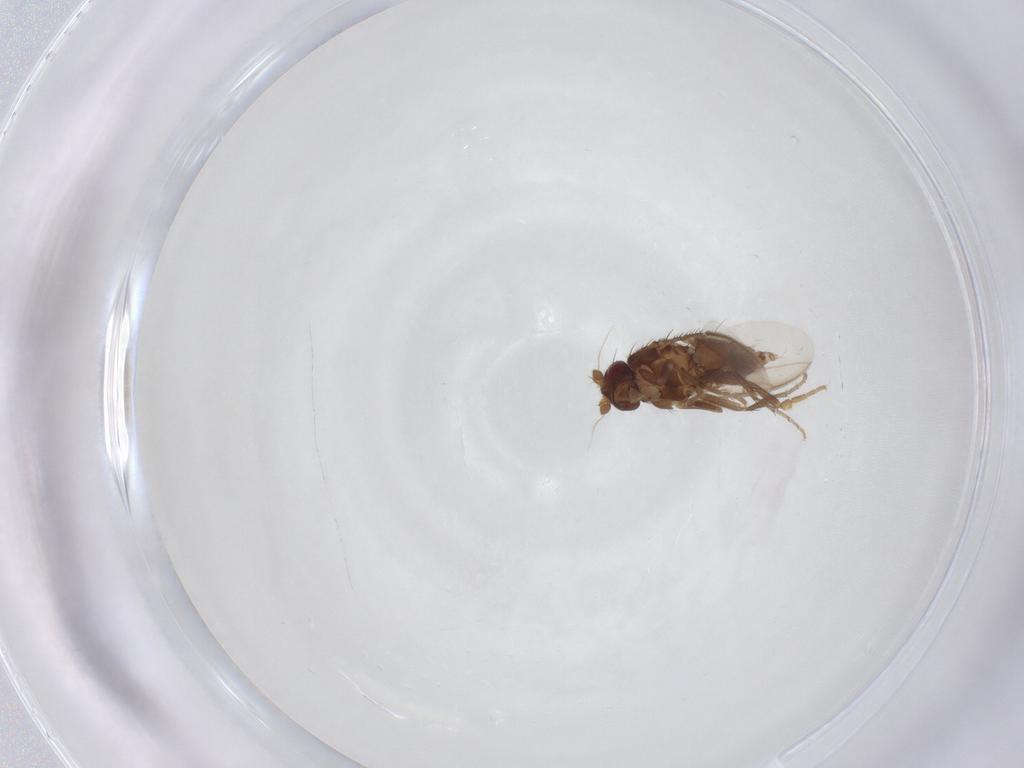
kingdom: Animalia
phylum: Arthropoda
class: Insecta
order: Diptera
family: Sphaeroceridae
